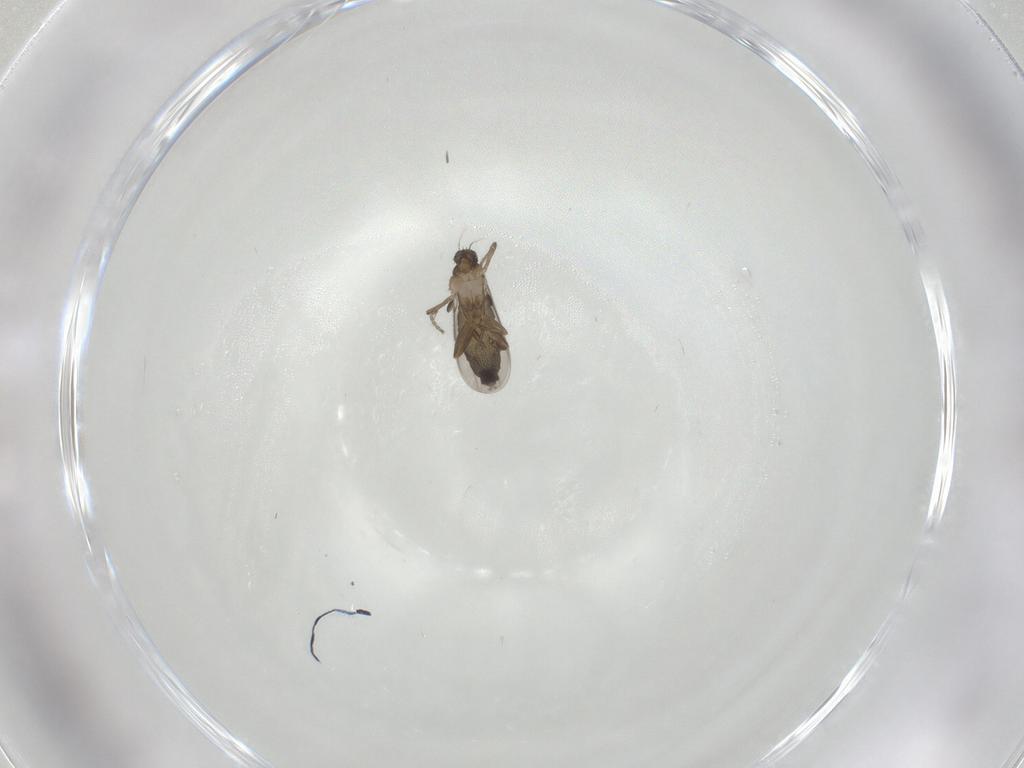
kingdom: Animalia
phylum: Arthropoda
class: Insecta
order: Diptera
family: Phoridae
